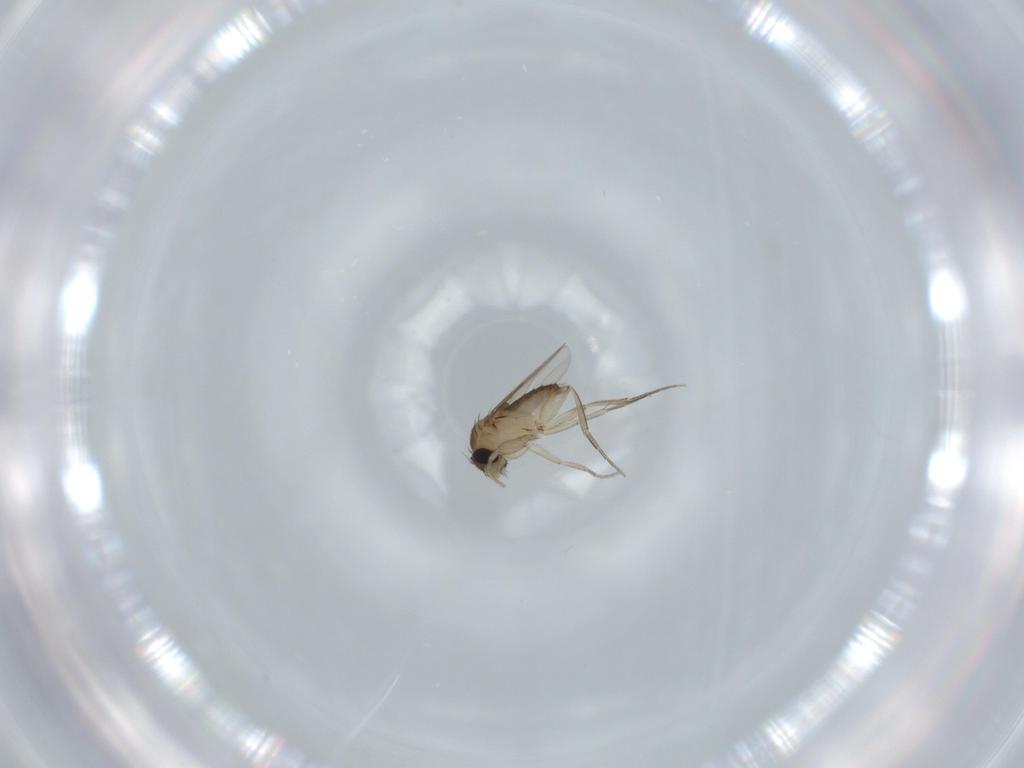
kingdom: Animalia
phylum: Arthropoda
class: Insecta
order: Diptera
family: Phoridae
